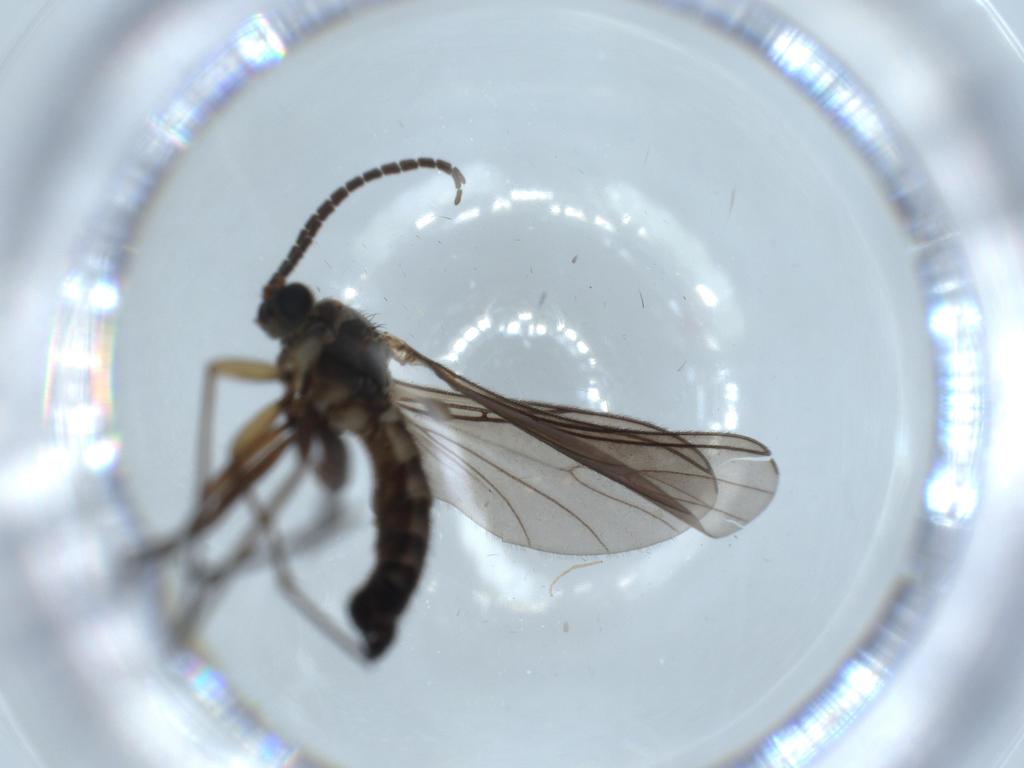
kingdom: Animalia
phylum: Arthropoda
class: Insecta
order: Diptera
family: Sciaridae
